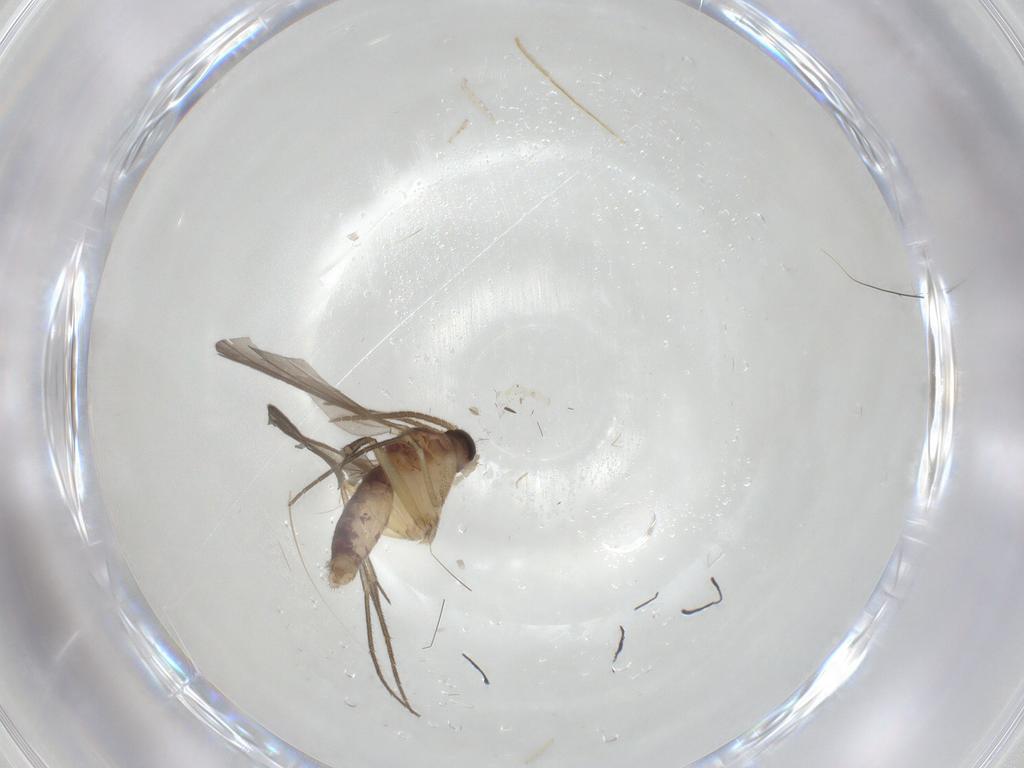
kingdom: Animalia
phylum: Arthropoda
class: Insecta
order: Diptera
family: Mycetophilidae
